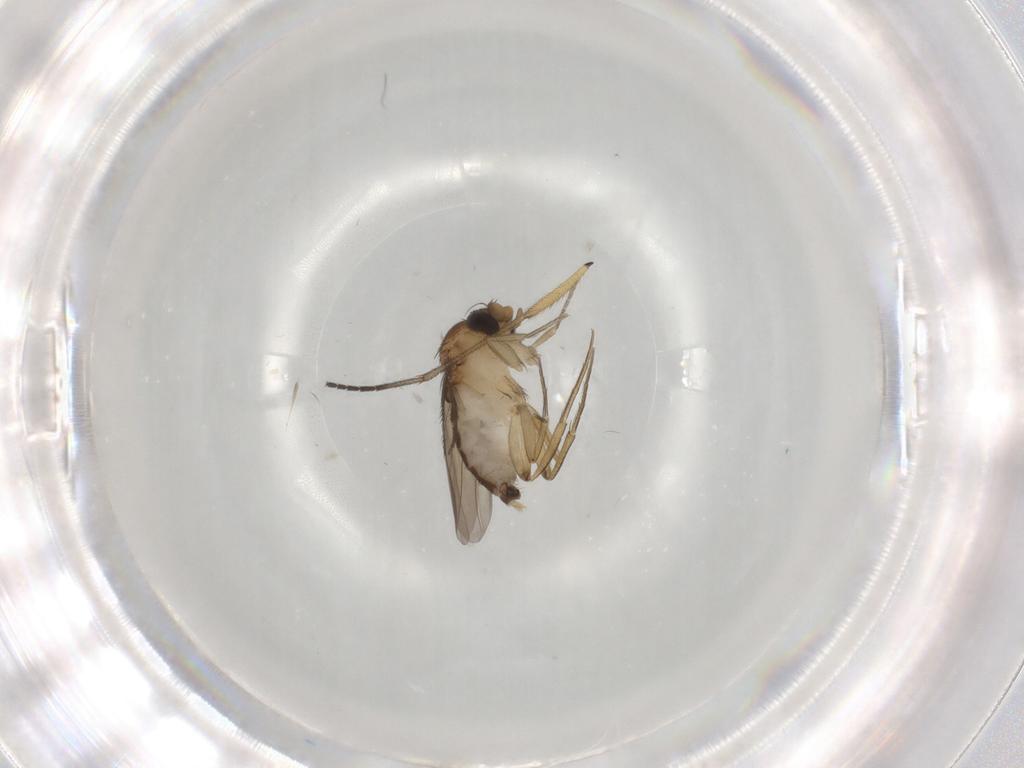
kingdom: Animalia
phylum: Arthropoda
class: Insecta
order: Diptera
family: Phoridae
